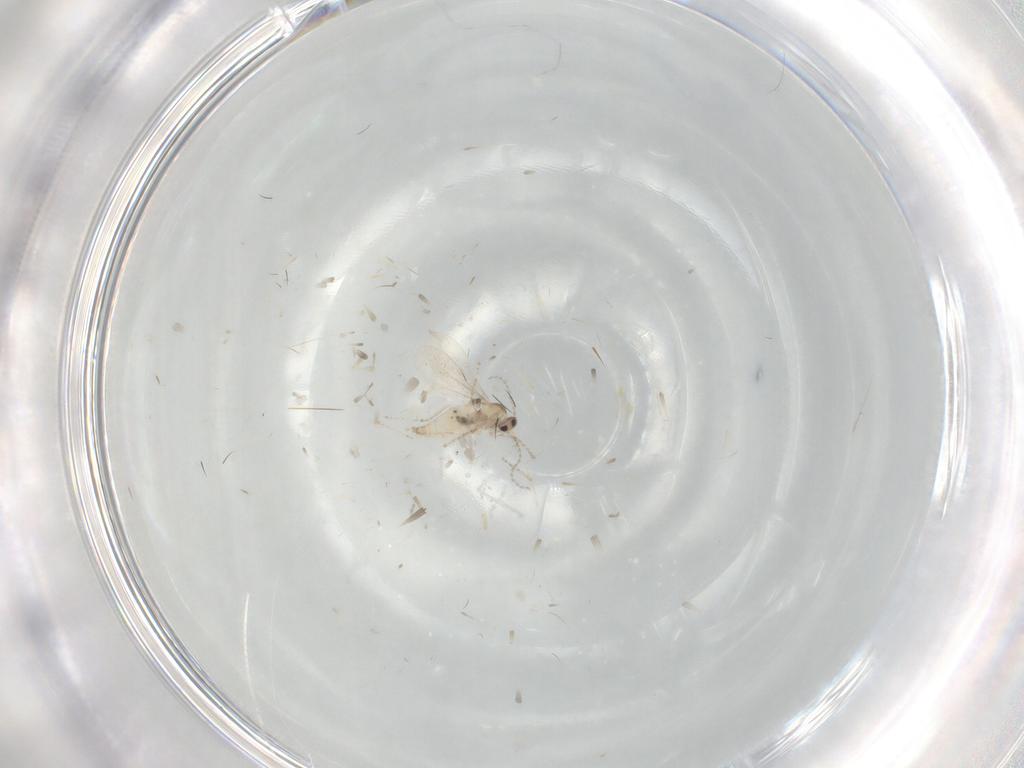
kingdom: Animalia
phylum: Arthropoda
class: Insecta
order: Diptera
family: Cecidomyiidae
